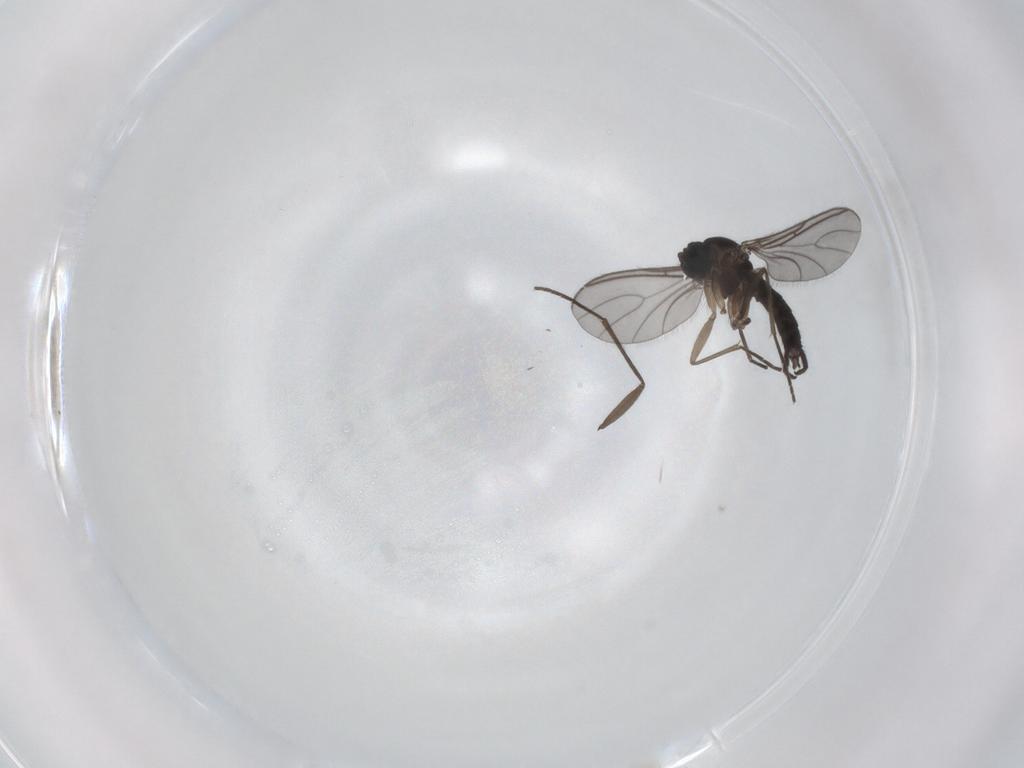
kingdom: Animalia
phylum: Arthropoda
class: Insecta
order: Diptera
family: Sciaridae
